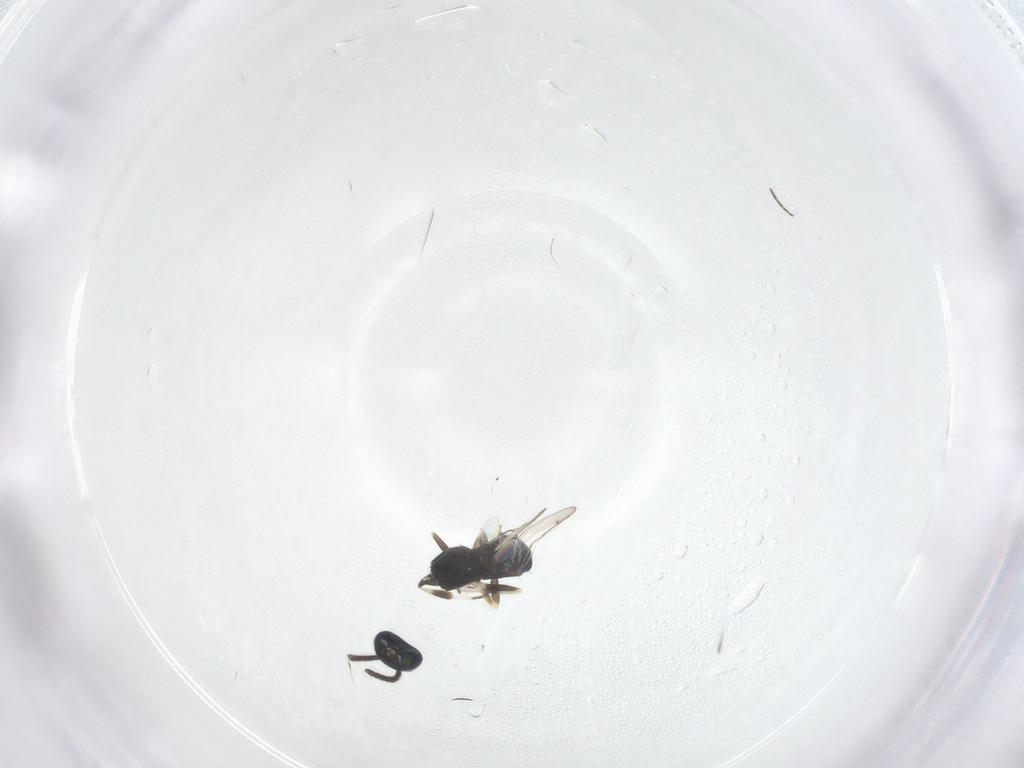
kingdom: Animalia
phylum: Arthropoda
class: Insecta
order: Hymenoptera
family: Eupelmidae
